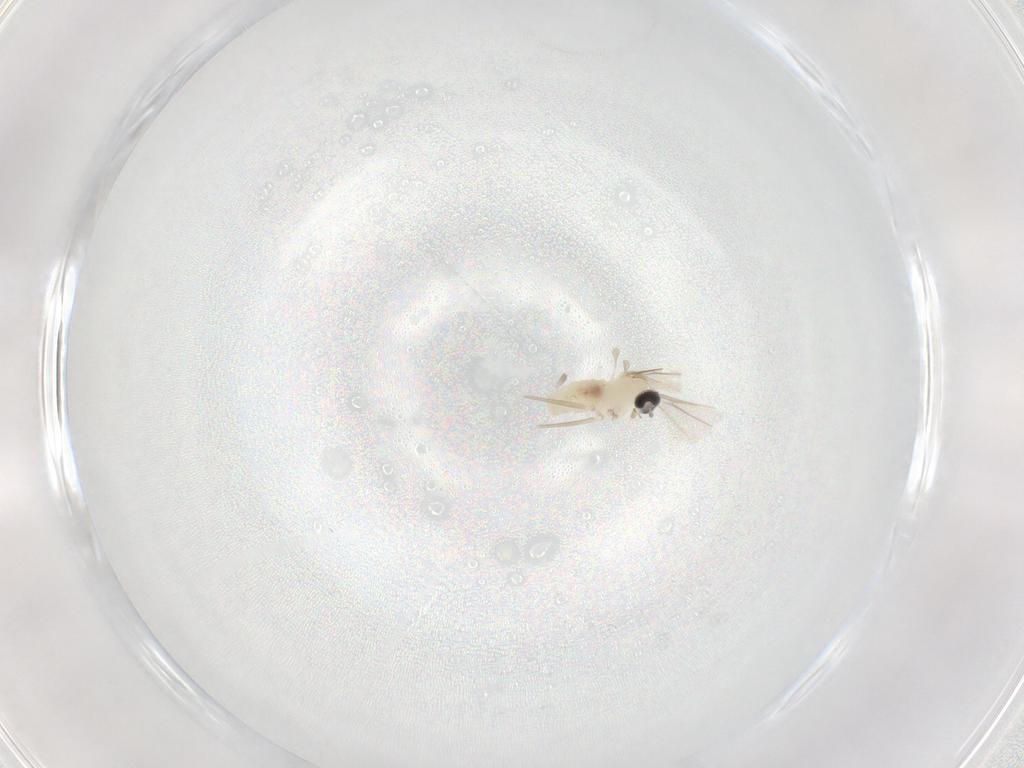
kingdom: Animalia
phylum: Arthropoda
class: Insecta
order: Diptera
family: Cecidomyiidae
